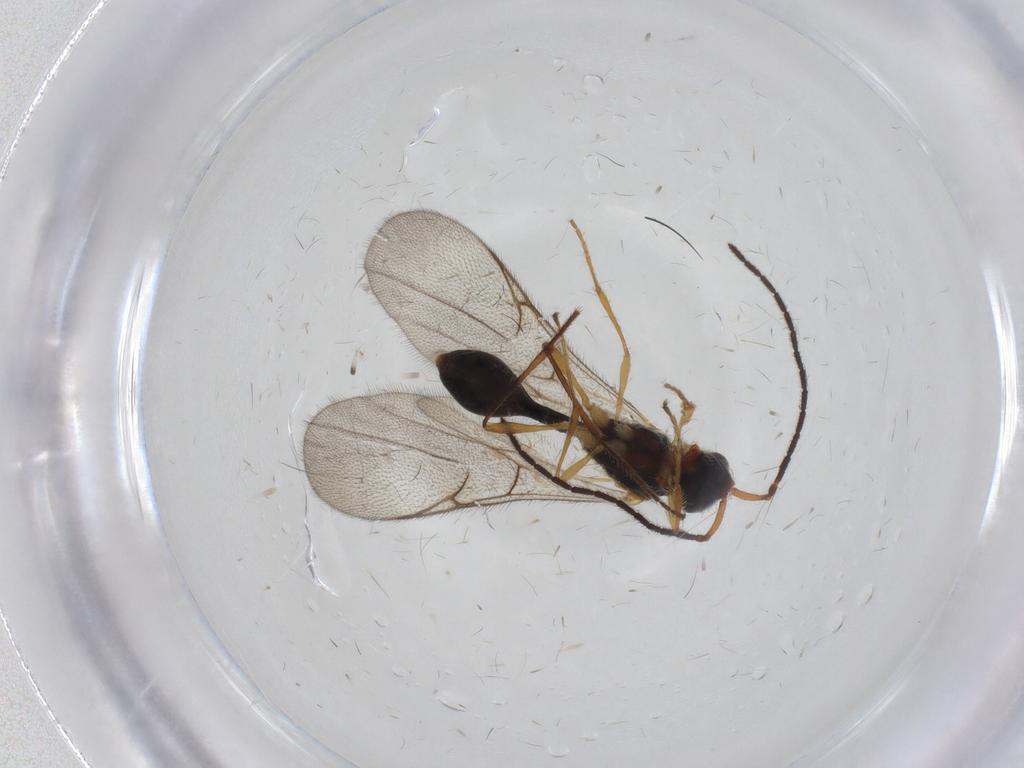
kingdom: Animalia
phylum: Arthropoda
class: Insecta
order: Hymenoptera
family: Diapriidae
